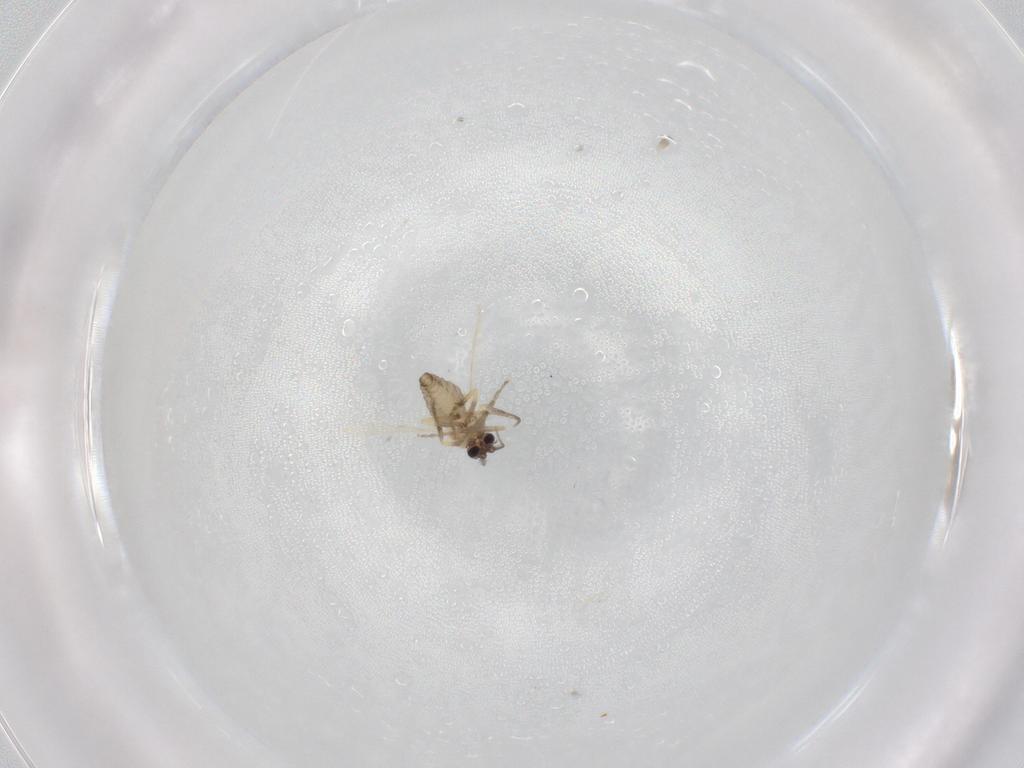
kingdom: Animalia
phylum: Arthropoda
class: Insecta
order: Diptera
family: Ceratopogonidae
